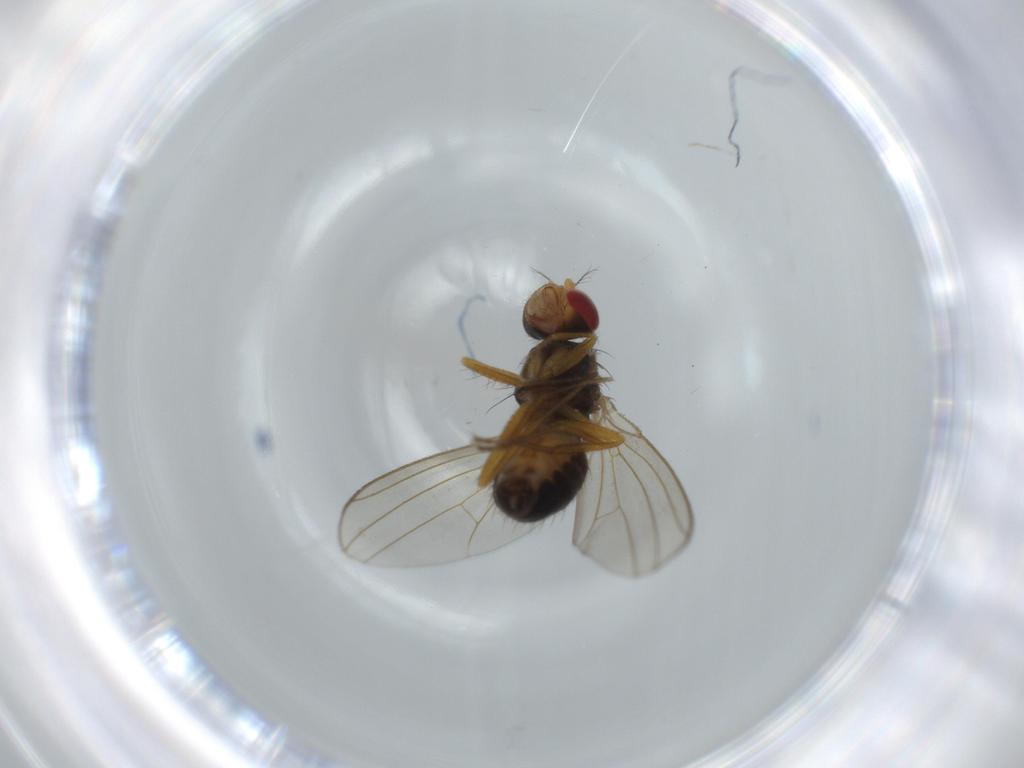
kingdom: Animalia
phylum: Arthropoda
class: Insecta
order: Diptera
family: Drosophilidae
